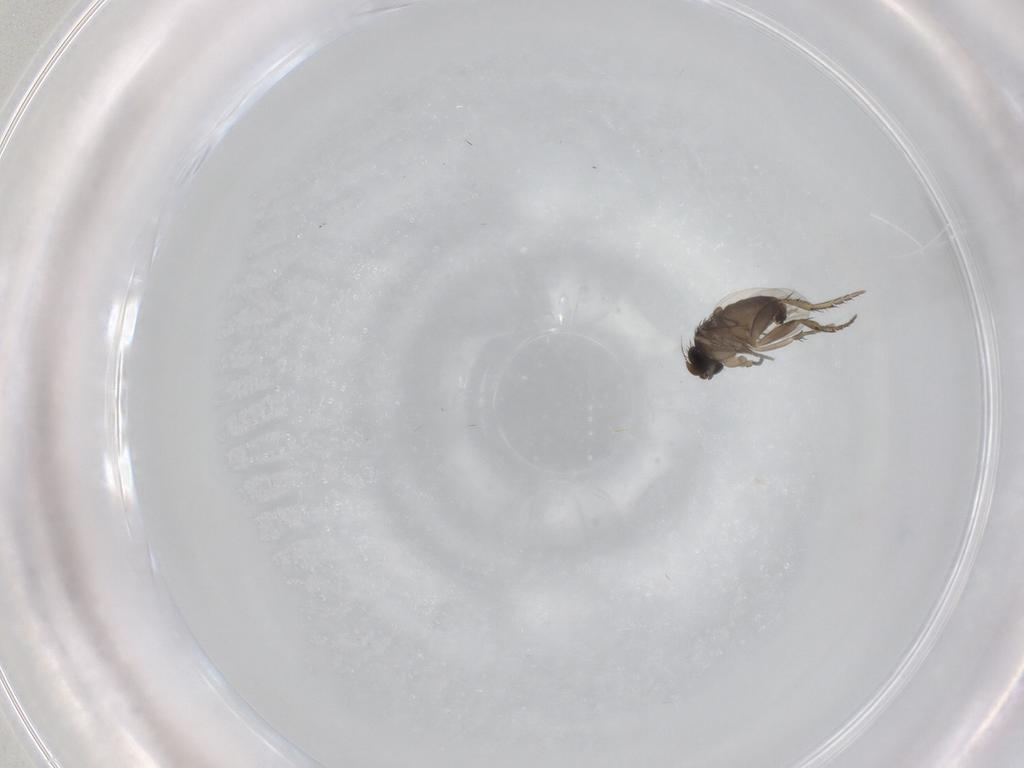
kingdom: Animalia
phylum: Arthropoda
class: Insecta
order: Diptera
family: Phoridae
